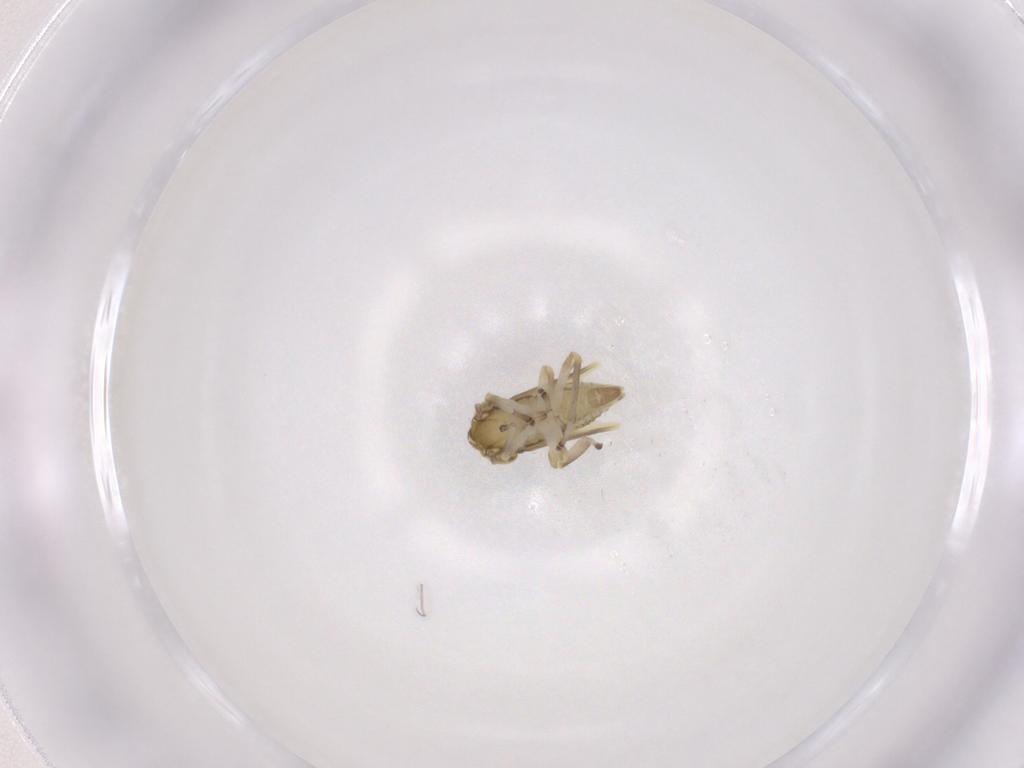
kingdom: Animalia
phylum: Arthropoda
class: Insecta
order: Hemiptera
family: Cicadellidae
